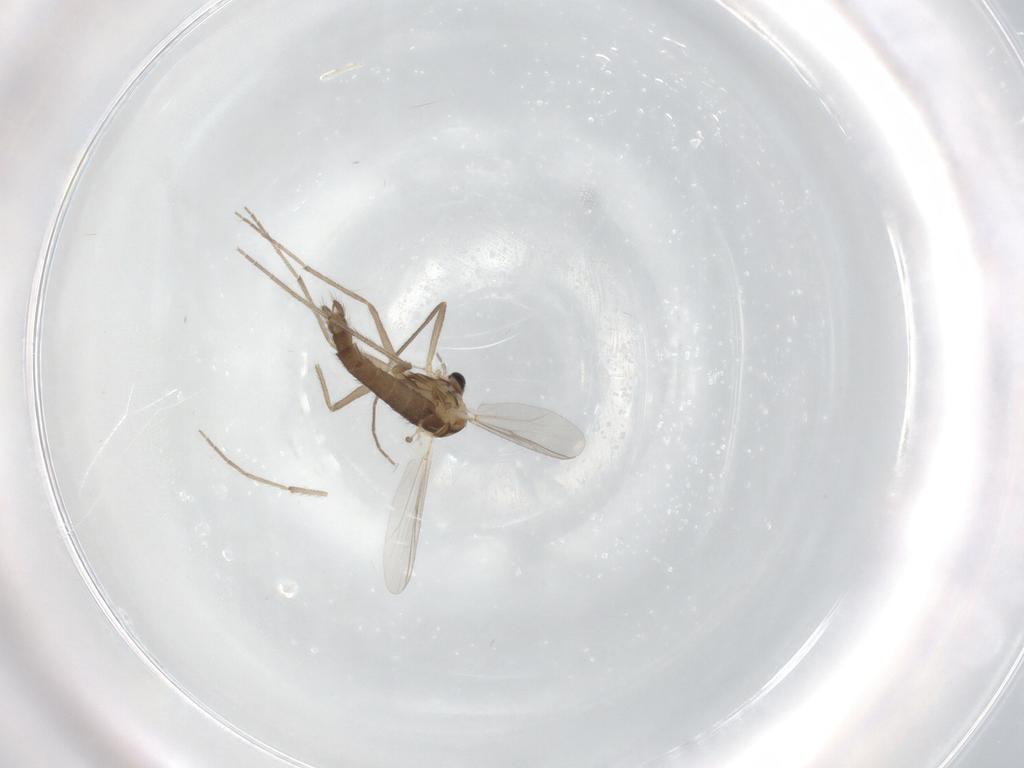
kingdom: Animalia
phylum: Arthropoda
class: Insecta
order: Diptera
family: Chironomidae
